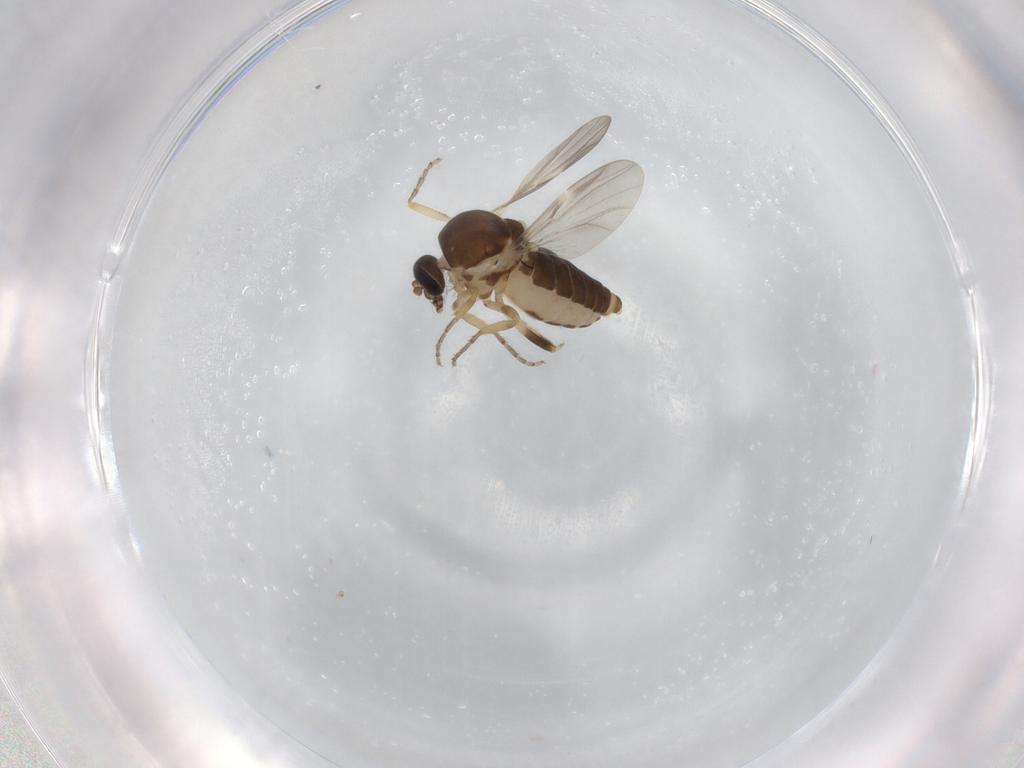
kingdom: Animalia
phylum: Arthropoda
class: Insecta
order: Diptera
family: Ceratopogonidae
